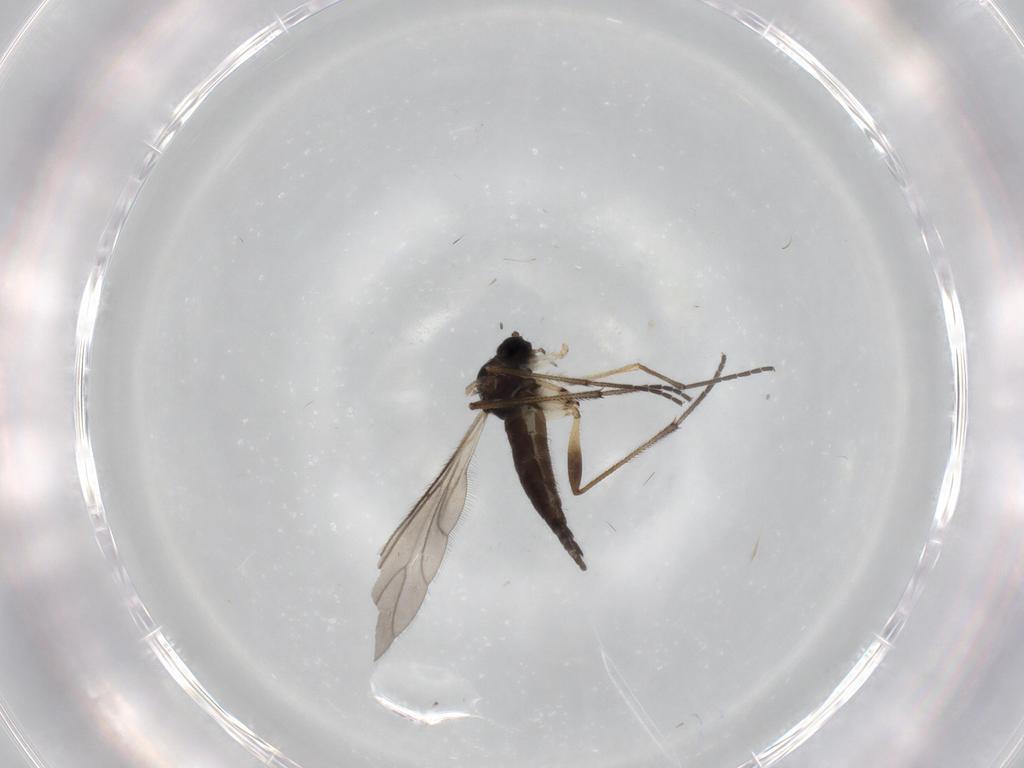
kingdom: Animalia
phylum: Arthropoda
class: Insecta
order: Diptera
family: Sciaridae
